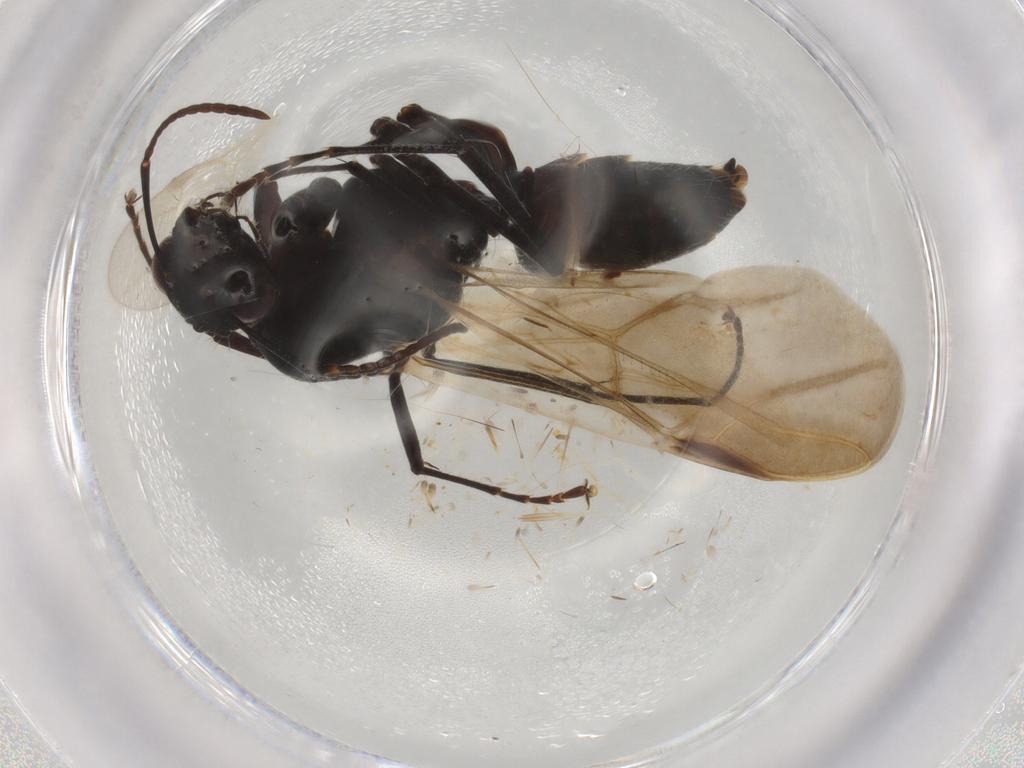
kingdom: Animalia
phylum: Arthropoda
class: Insecta
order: Hymenoptera
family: Formicidae
